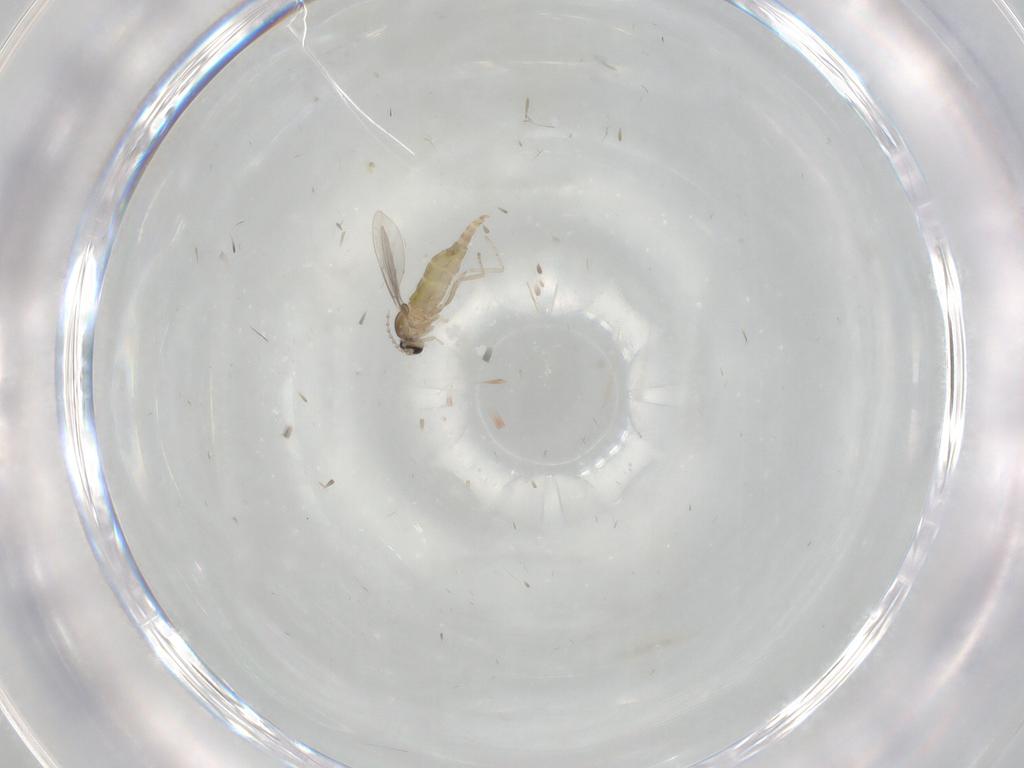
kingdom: Animalia
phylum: Arthropoda
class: Insecta
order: Diptera
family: Cecidomyiidae
